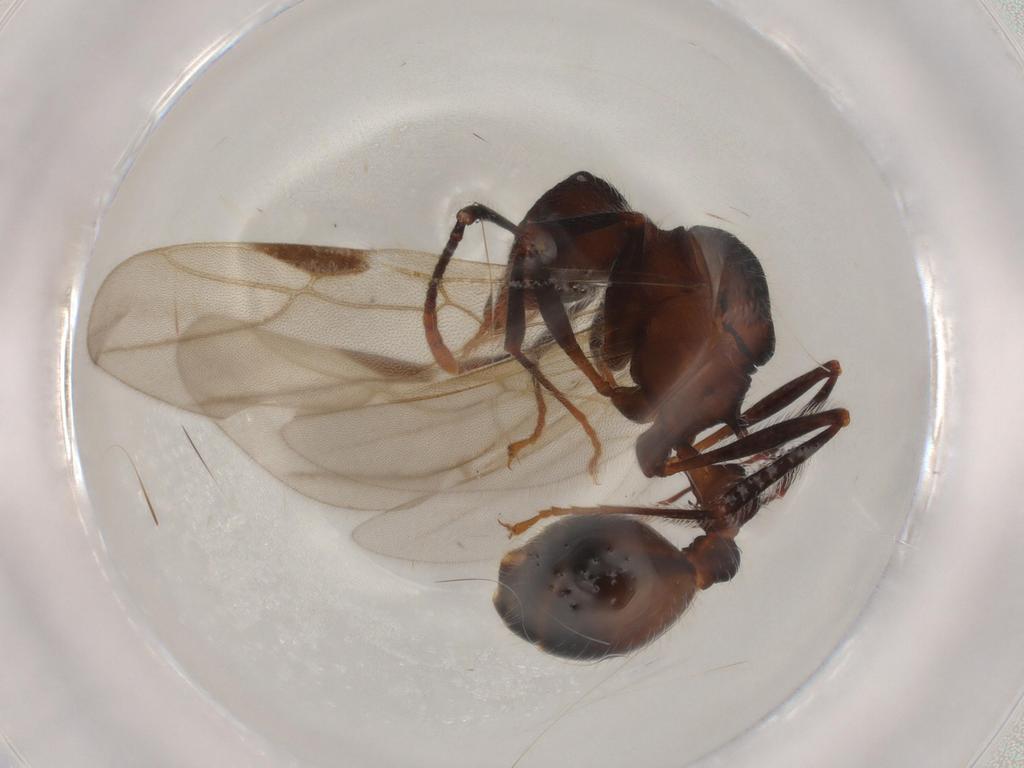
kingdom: Animalia
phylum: Arthropoda
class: Insecta
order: Hymenoptera
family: Formicidae
